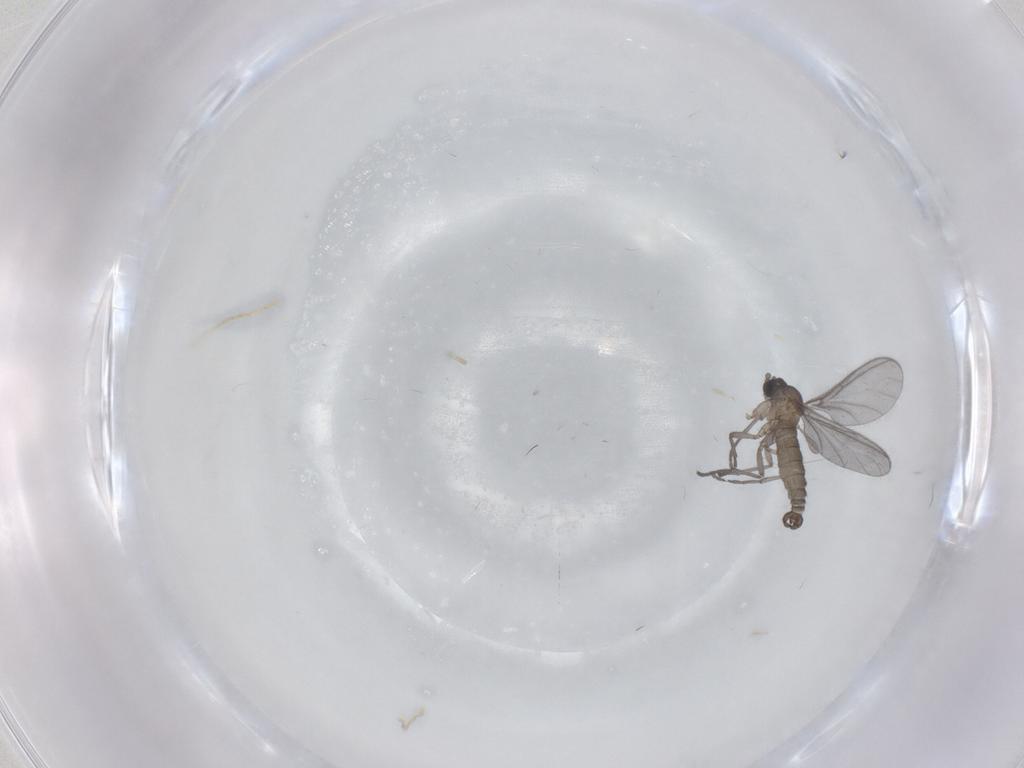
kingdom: Animalia
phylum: Arthropoda
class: Insecta
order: Diptera
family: Sciaridae
